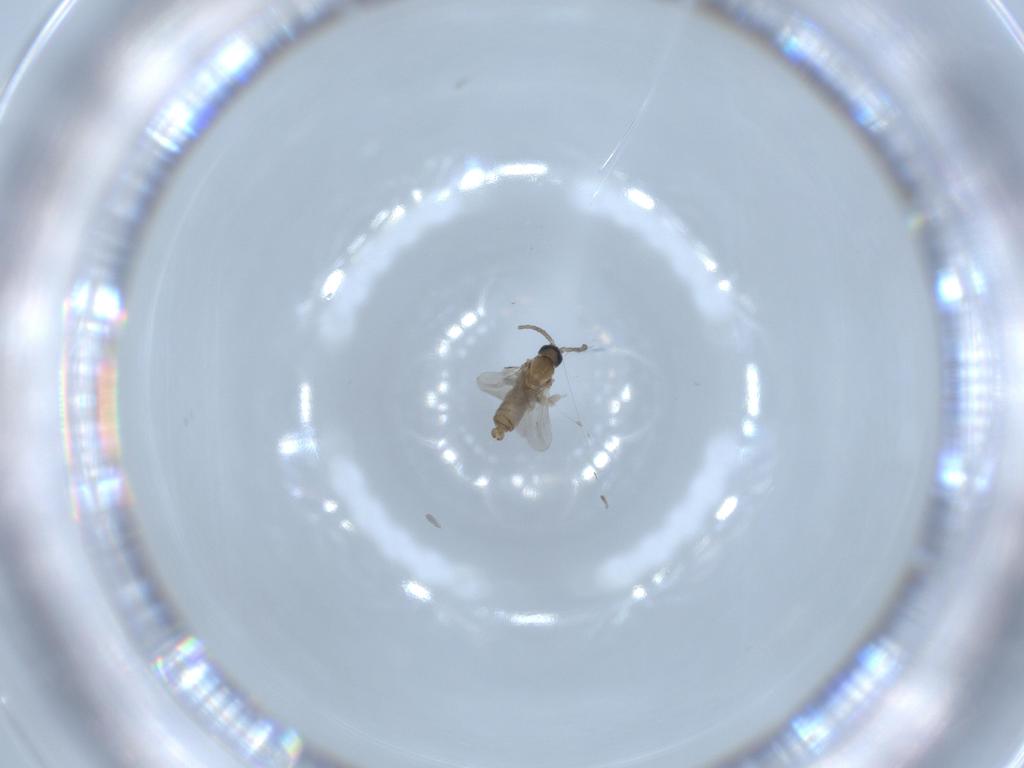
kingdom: Animalia
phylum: Arthropoda
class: Insecta
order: Diptera
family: Cecidomyiidae
